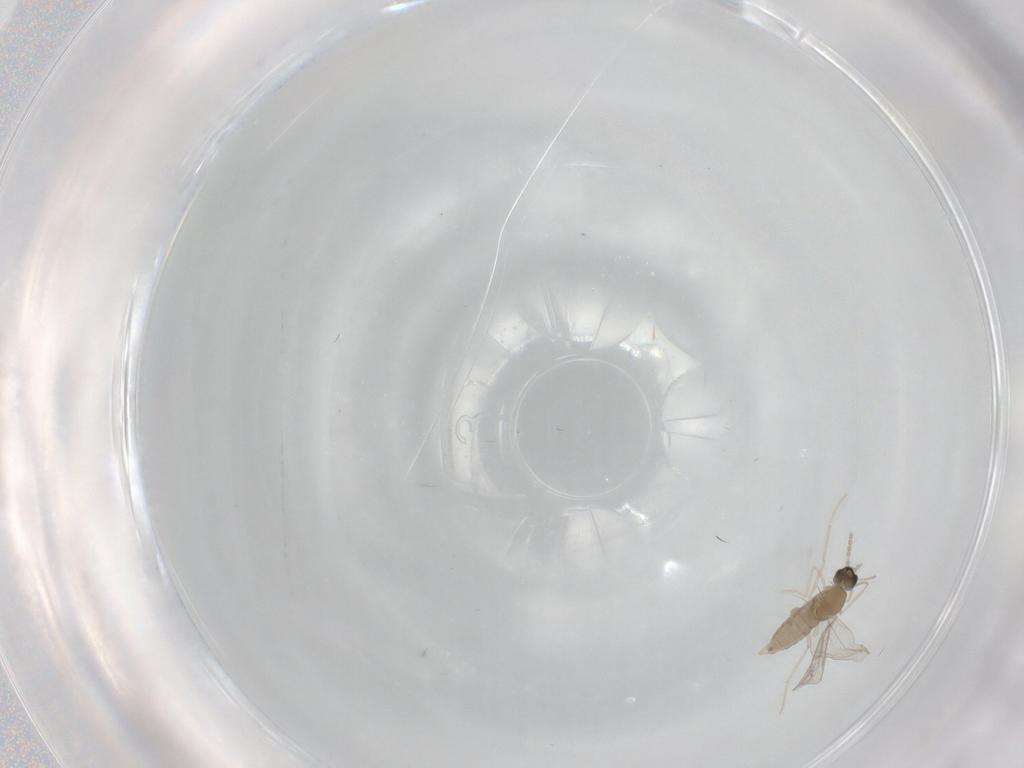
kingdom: Animalia
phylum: Arthropoda
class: Insecta
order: Diptera
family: Cecidomyiidae
